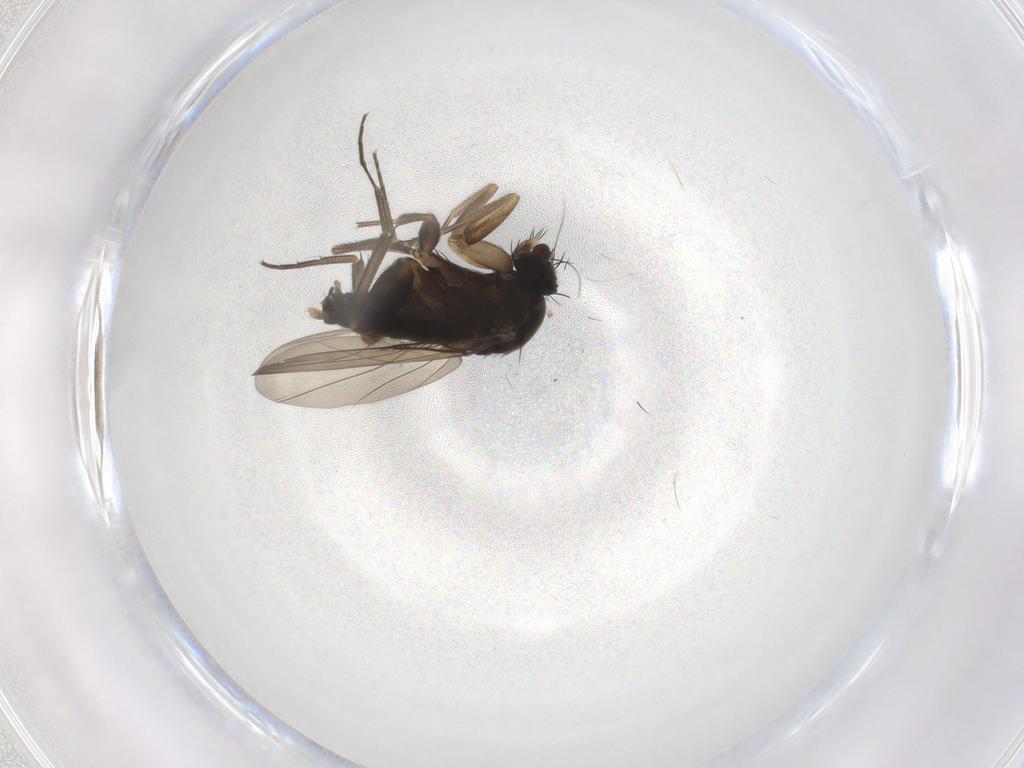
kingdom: Animalia
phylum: Arthropoda
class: Insecta
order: Diptera
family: Phoridae
